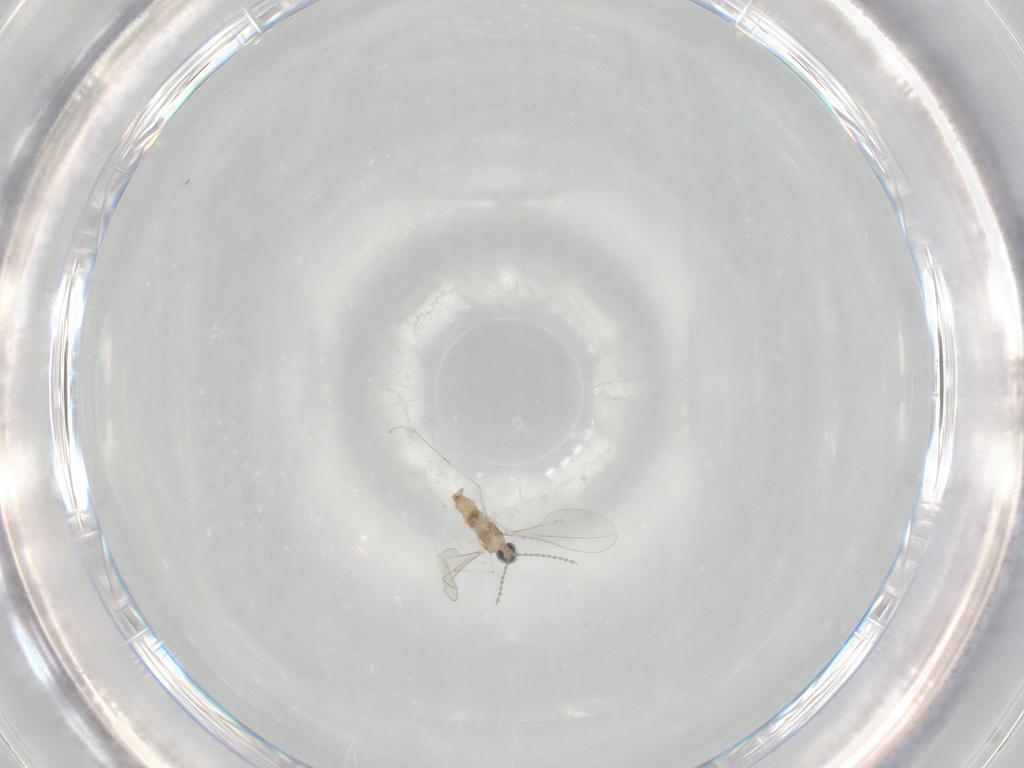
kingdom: Animalia
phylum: Arthropoda
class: Insecta
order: Diptera
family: Cecidomyiidae
